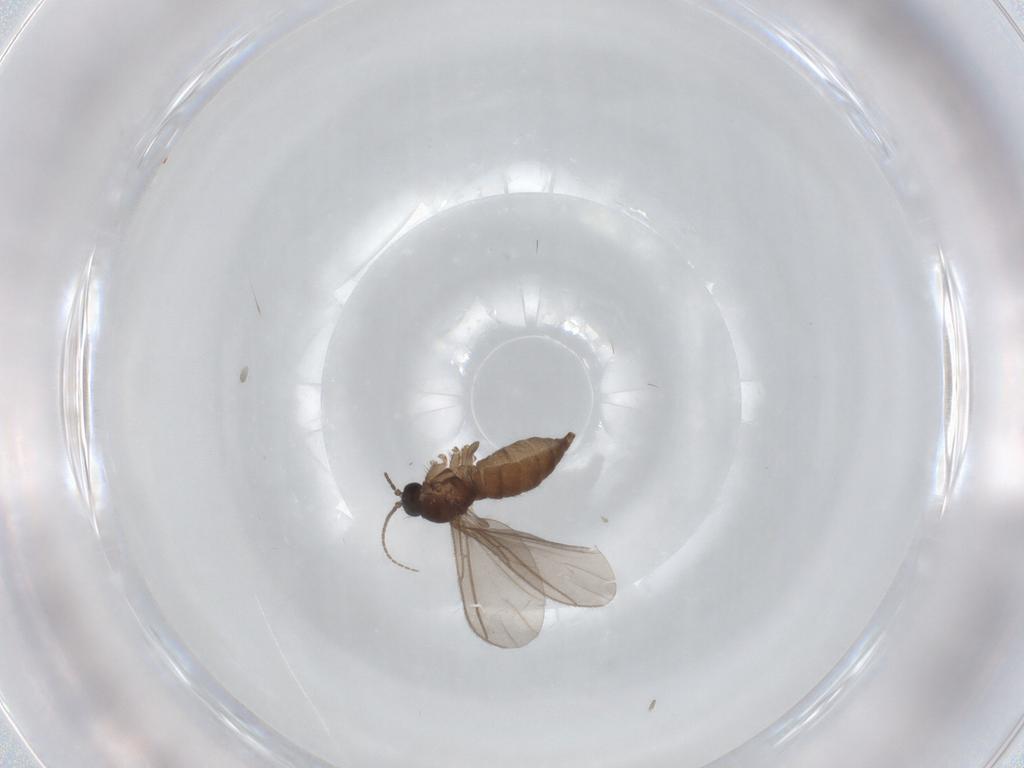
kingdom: Animalia
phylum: Arthropoda
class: Insecta
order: Diptera
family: Sciaridae
